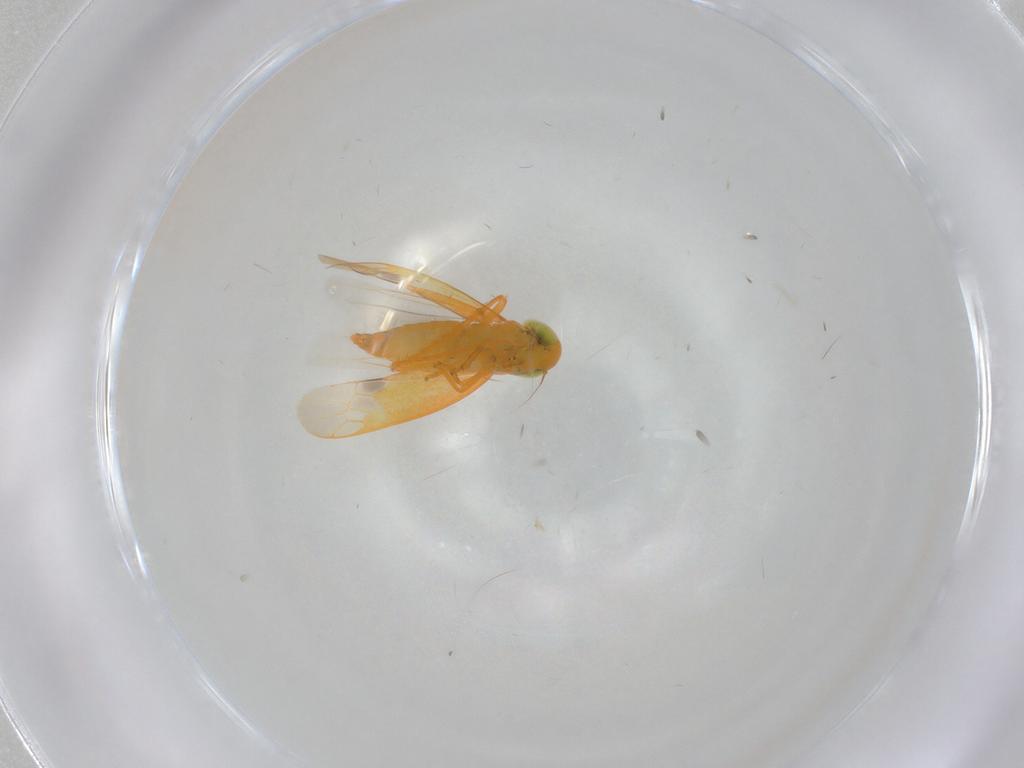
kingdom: Animalia
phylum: Arthropoda
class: Insecta
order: Hemiptera
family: Cicadellidae
